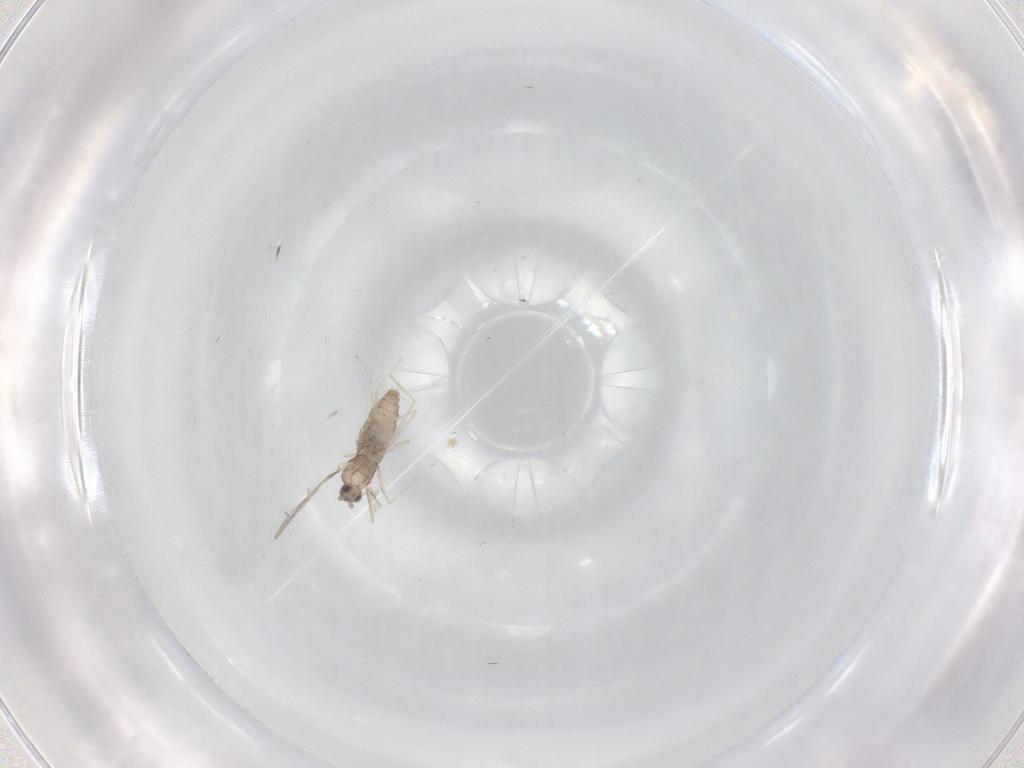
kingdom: Animalia
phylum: Arthropoda
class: Insecta
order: Diptera
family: Cecidomyiidae
